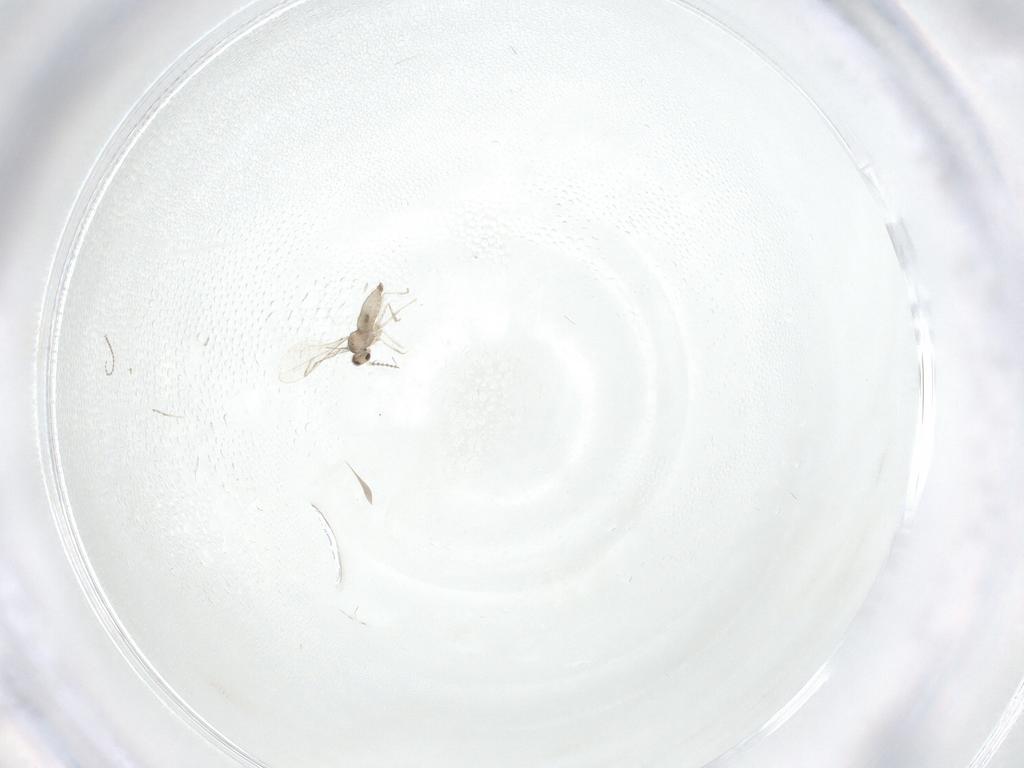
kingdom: Animalia
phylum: Arthropoda
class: Insecta
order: Diptera
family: Cecidomyiidae
